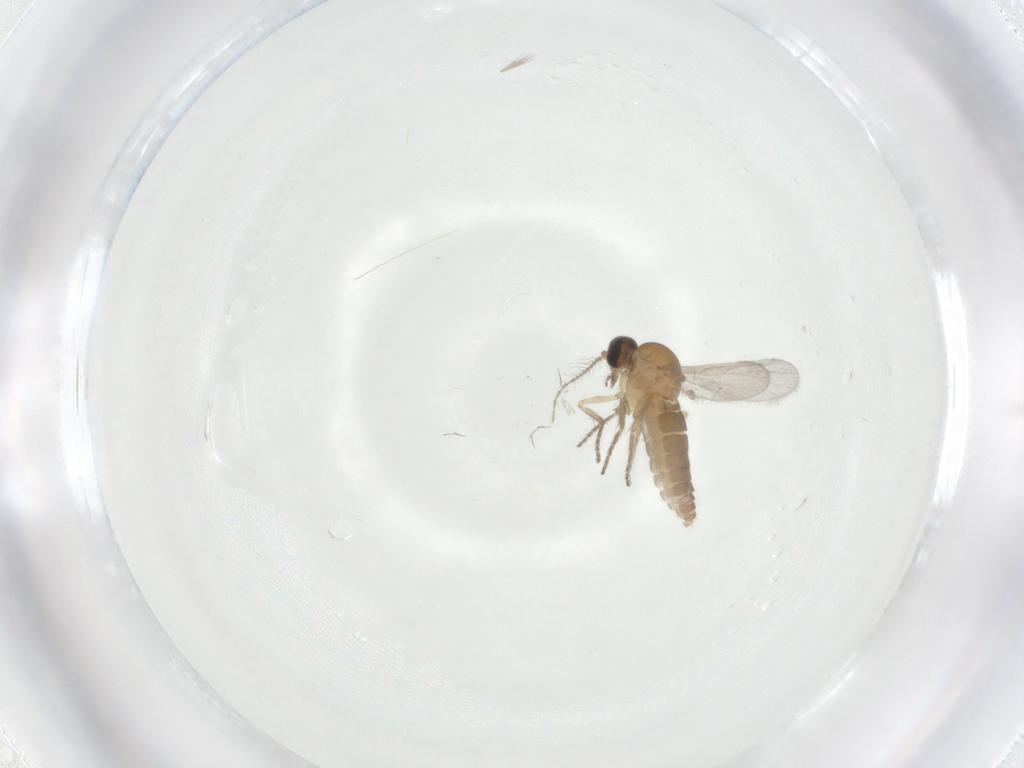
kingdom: Animalia
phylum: Arthropoda
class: Insecta
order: Diptera
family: Ceratopogonidae
